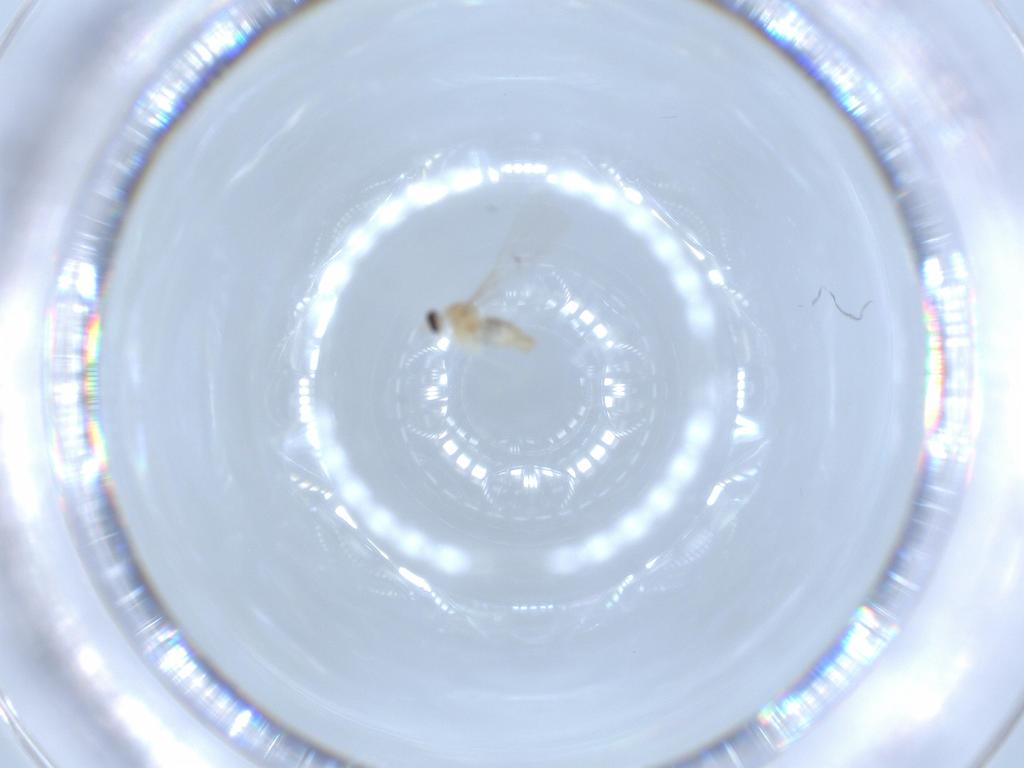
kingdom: Animalia
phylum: Arthropoda
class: Insecta
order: Diptera
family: Cecidomyiidae
